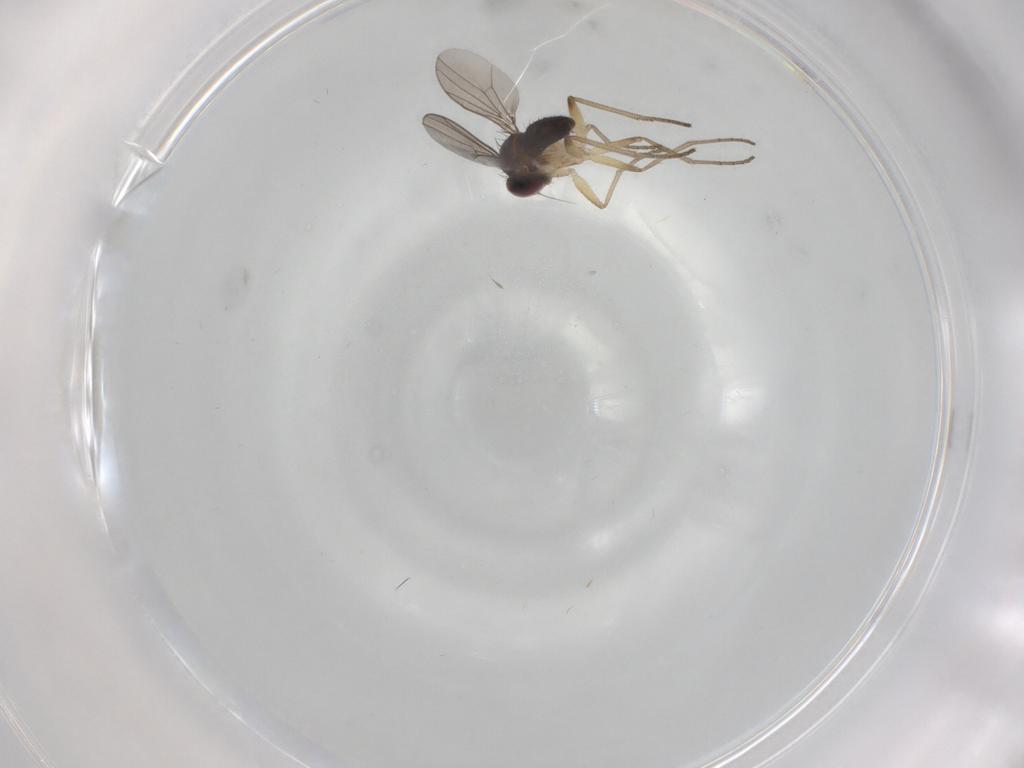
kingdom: Animalia
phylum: Arthropoda
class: Insecta
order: Diptera
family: Dolichopodidae
